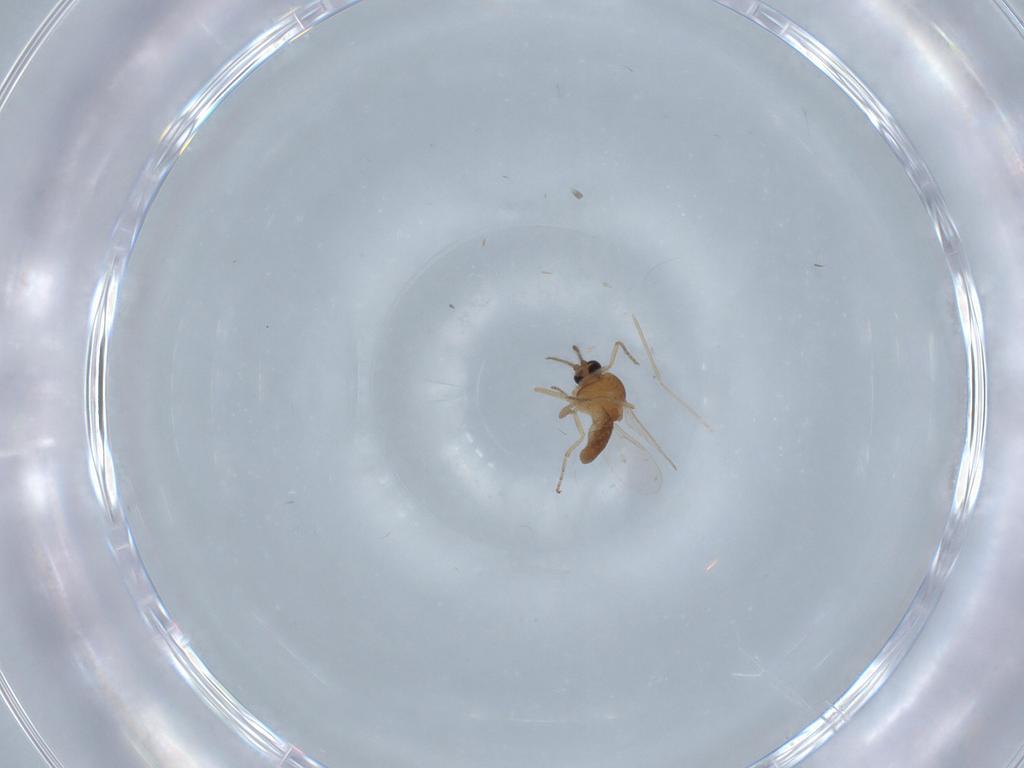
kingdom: Animalia
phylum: Arthropoda
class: Insecta
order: Diptera
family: Ceratopogonidae
